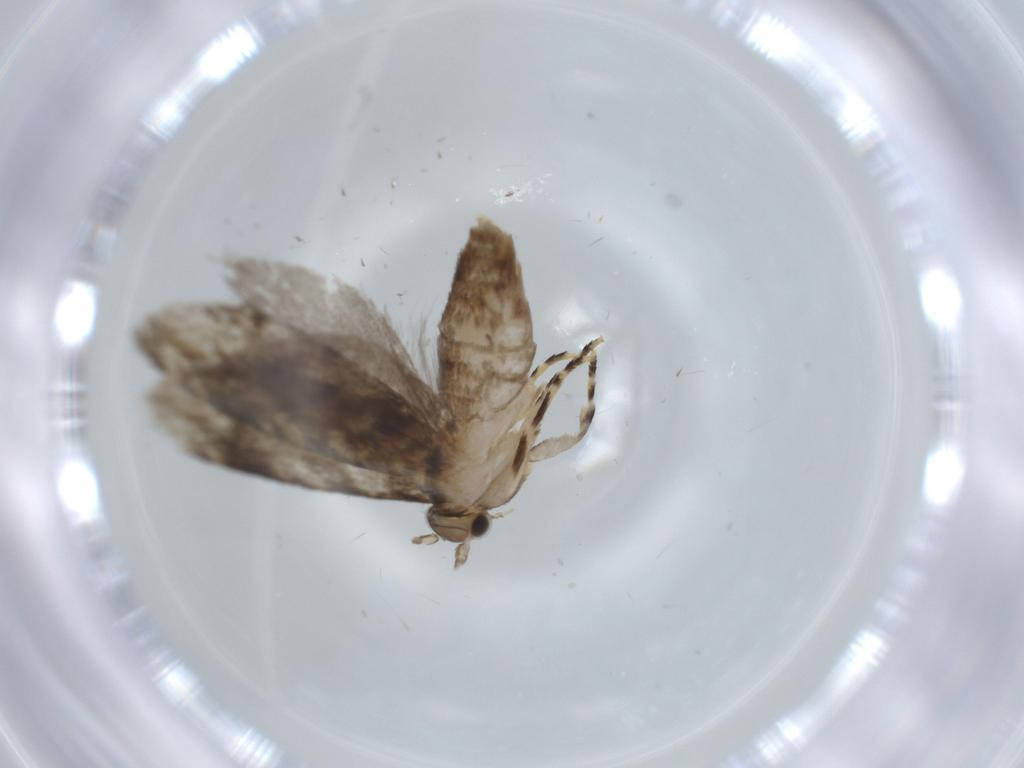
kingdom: Animalia
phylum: Arthropoda
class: Insecta
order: Lepidoptera
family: Tineidae
